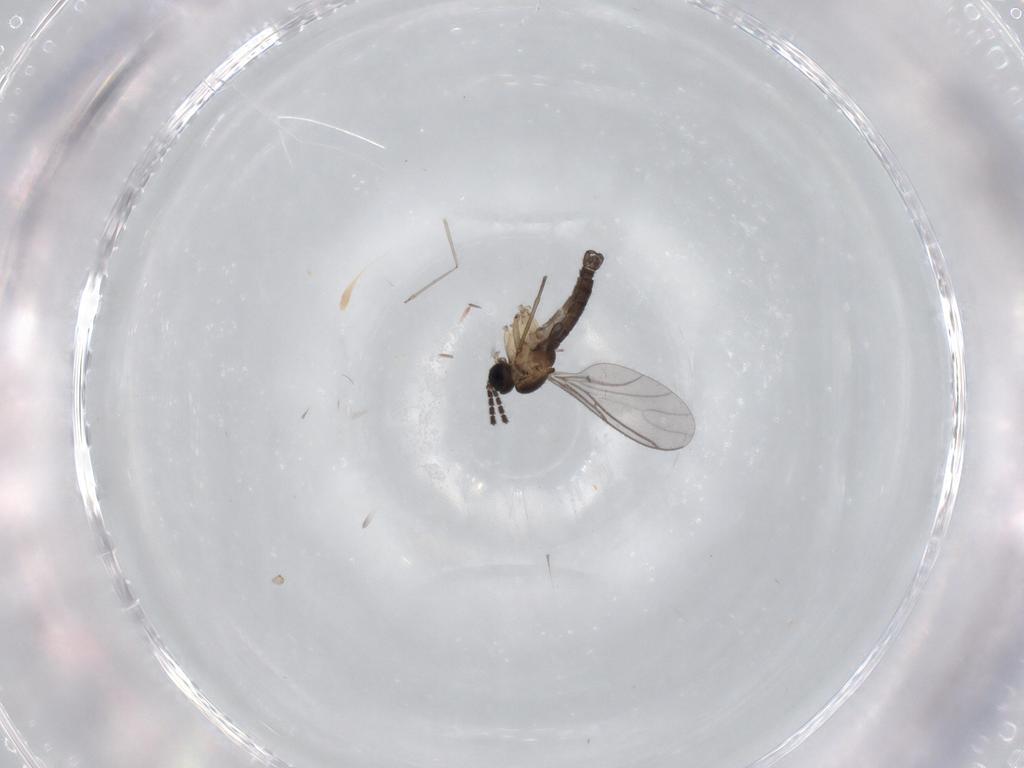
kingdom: Animalia
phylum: Arthropoda
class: Insecta
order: Diptera
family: Sciaridae
